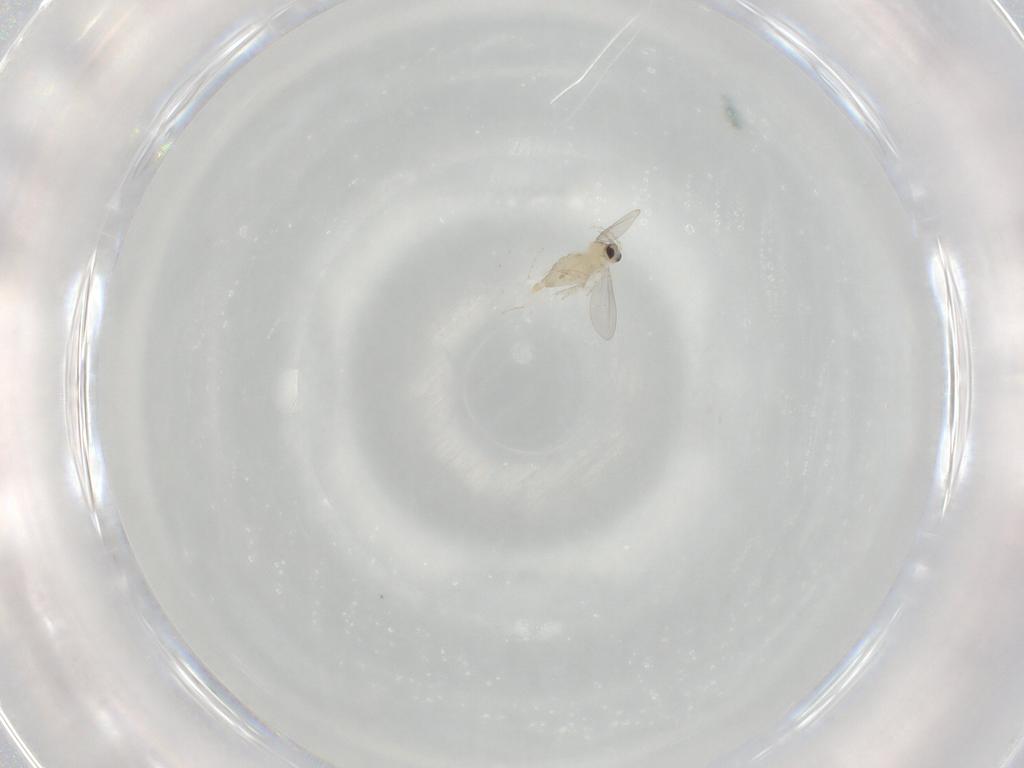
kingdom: Animalia
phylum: Arthropoda
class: Insecta
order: Diptera
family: Cecidomyiidae
